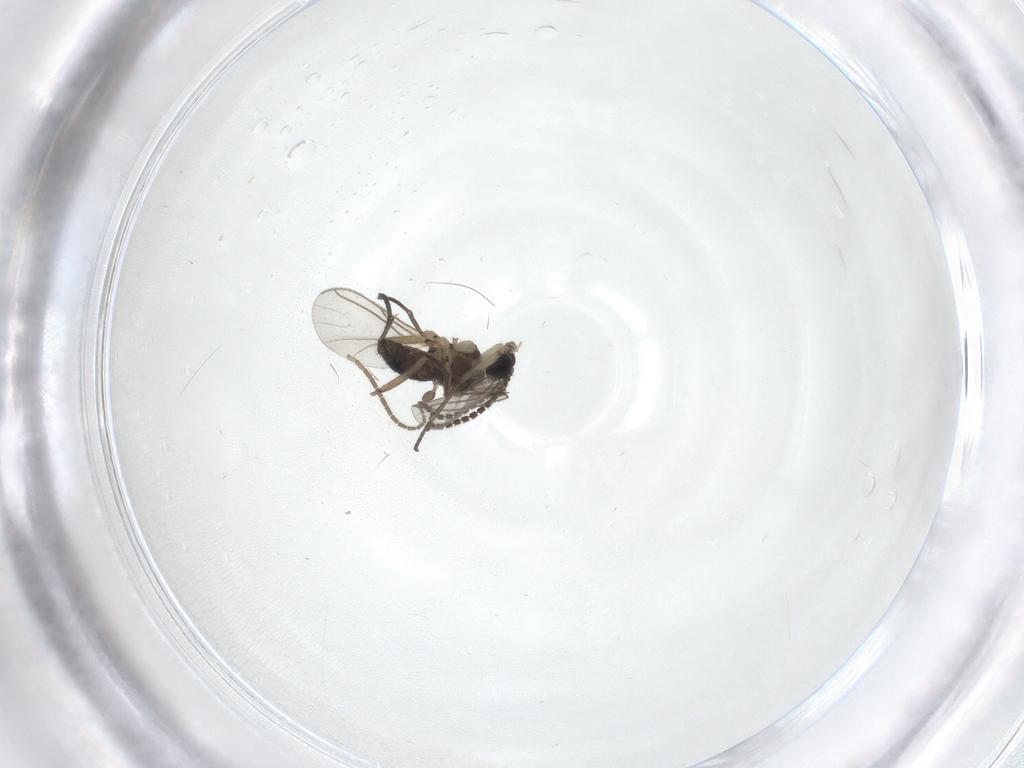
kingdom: Animalia
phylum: Arthropoda
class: Insecta
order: Diptera
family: Sciaridae
